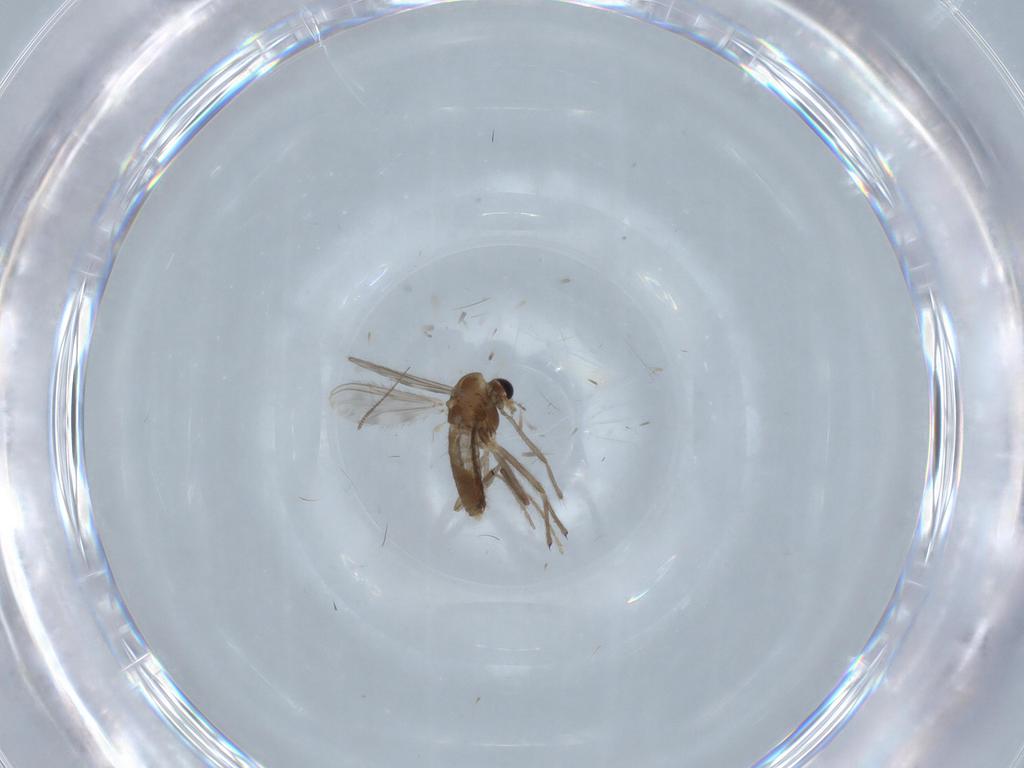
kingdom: Animalia
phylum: Arthropoda
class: Insecta
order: Diptera
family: Chironomidae
